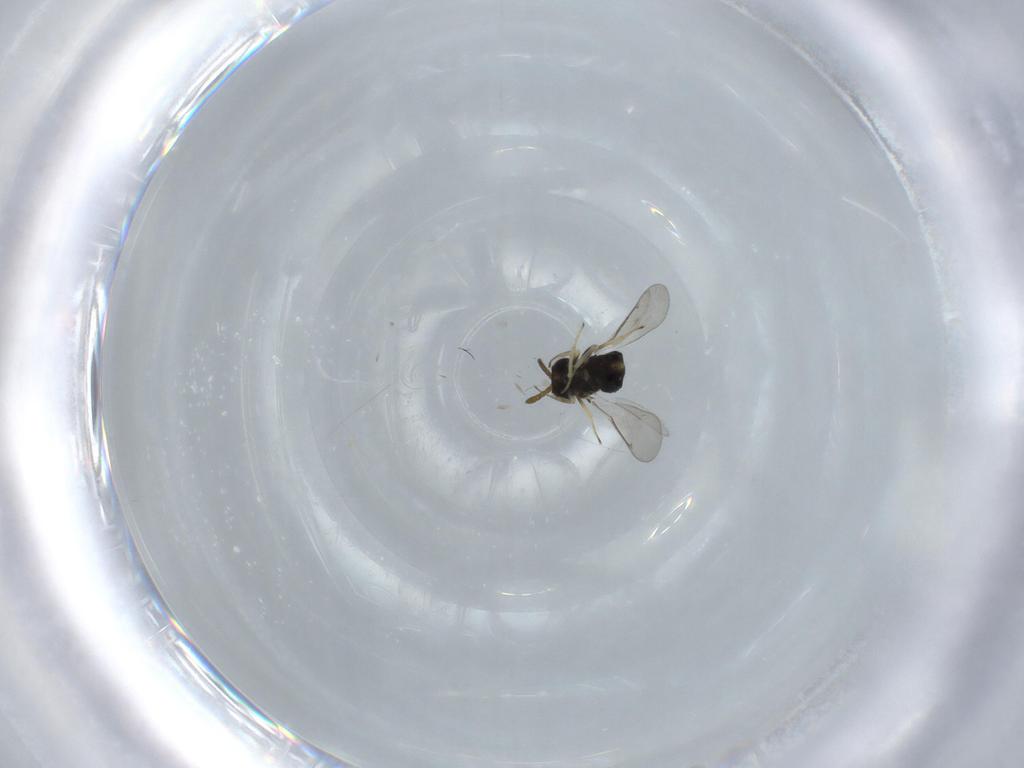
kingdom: Animalia
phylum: Arthropoda
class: Insecta
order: Hymenoptera
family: Aphelinidae
